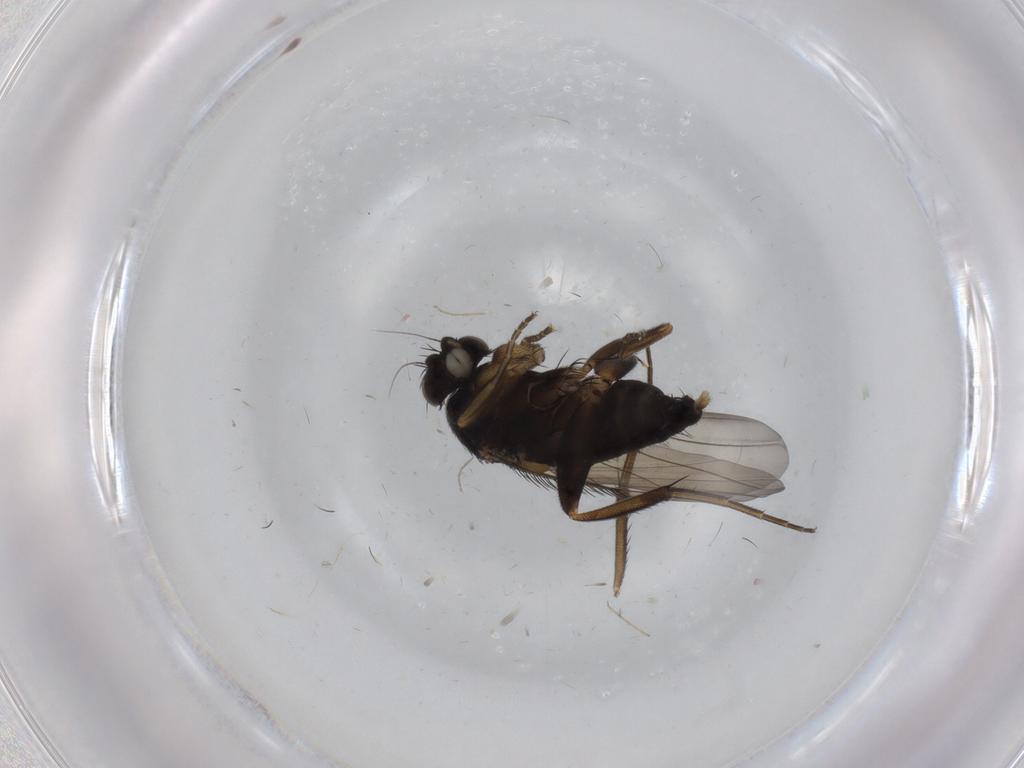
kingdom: Animalia
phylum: Arthropoda
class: Insecta
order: Diptera
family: Phoridae
